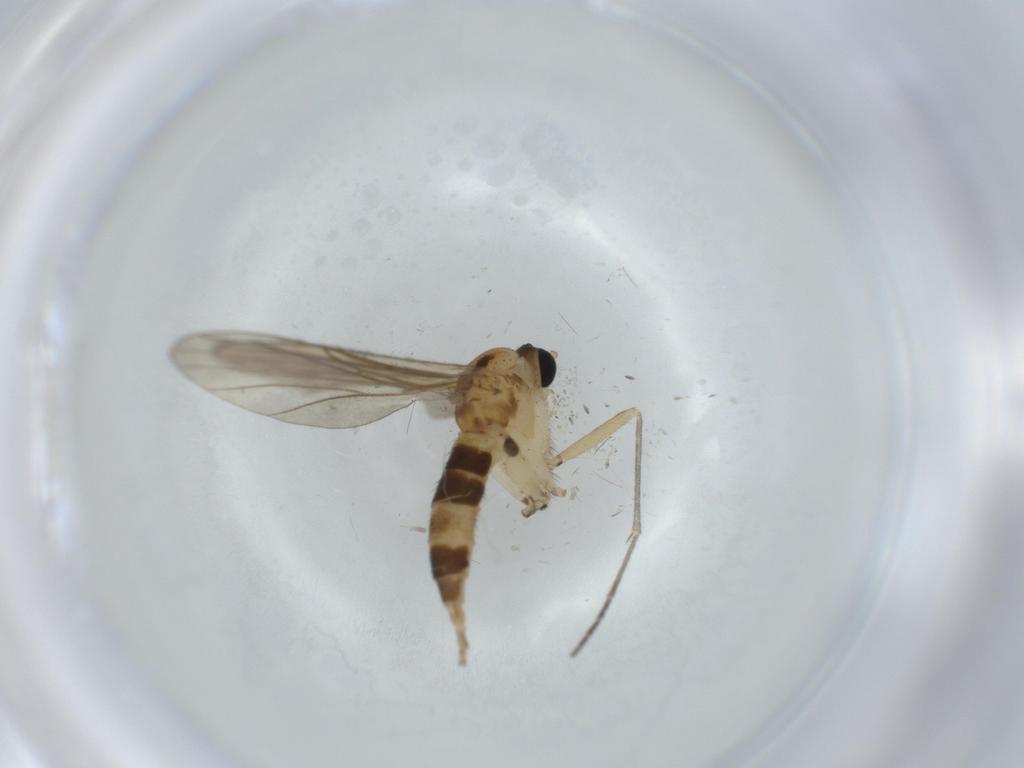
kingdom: Animalia
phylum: Arthropoda
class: Insecta
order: Diptera
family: Sciaridae
